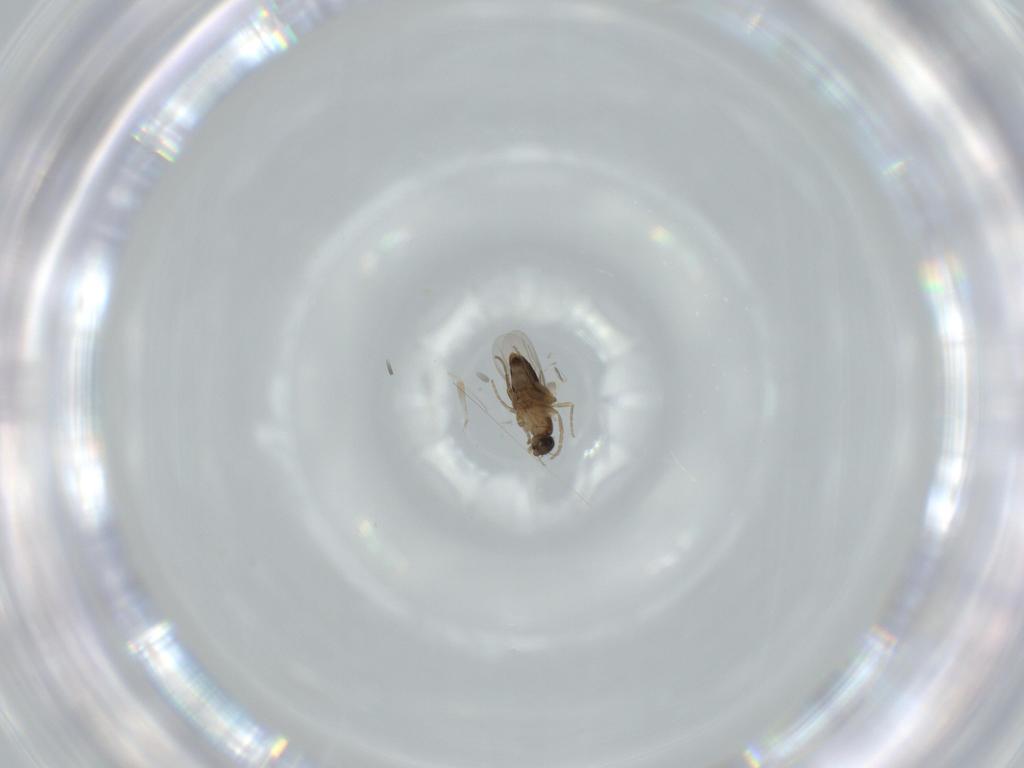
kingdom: Animalia
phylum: Arthropoda
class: Insecta
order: Diptera
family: Phoridae
